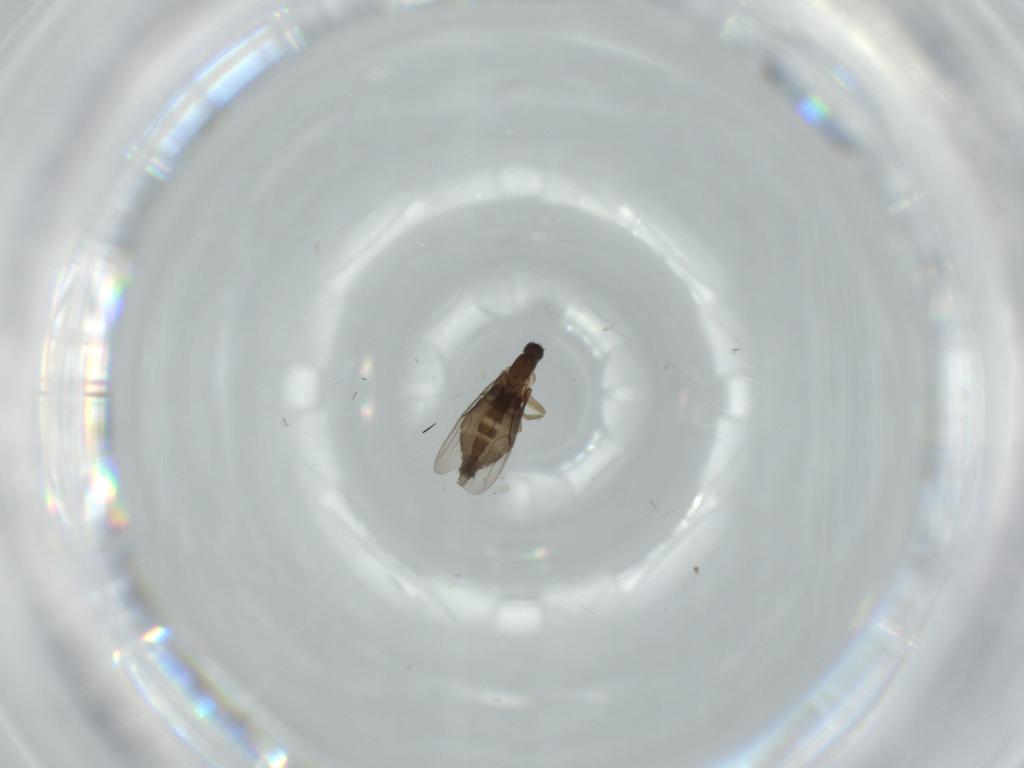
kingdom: Animalia
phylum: Arthropoda
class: Insecta
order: Diptera
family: Phoridae
